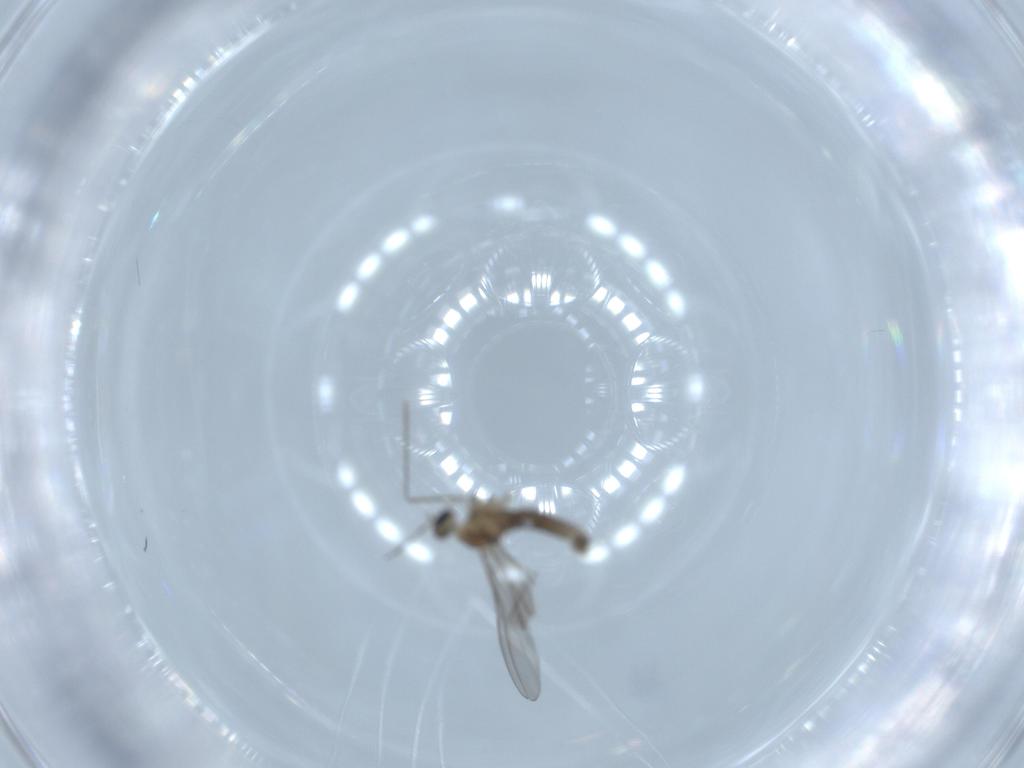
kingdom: Animalia
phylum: Arthropoda
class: Insecta
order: Diptera
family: Cecidomyiidae
